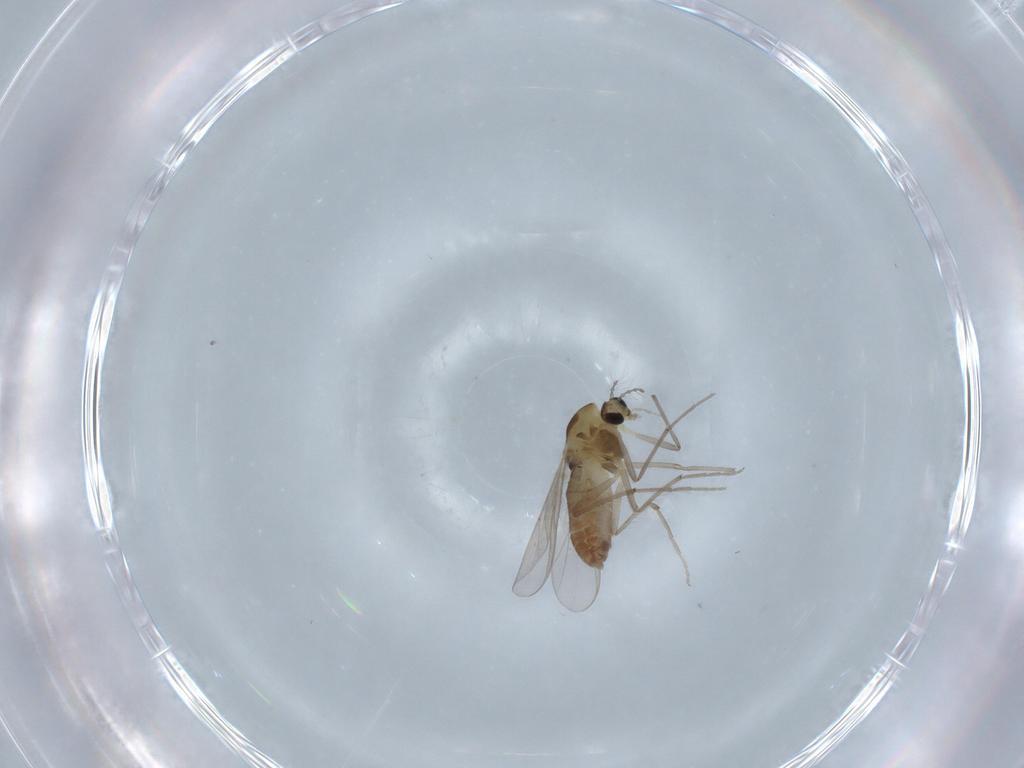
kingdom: Animalia
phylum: Arthropoda
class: Insecta
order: Diptera
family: Chironomidae
